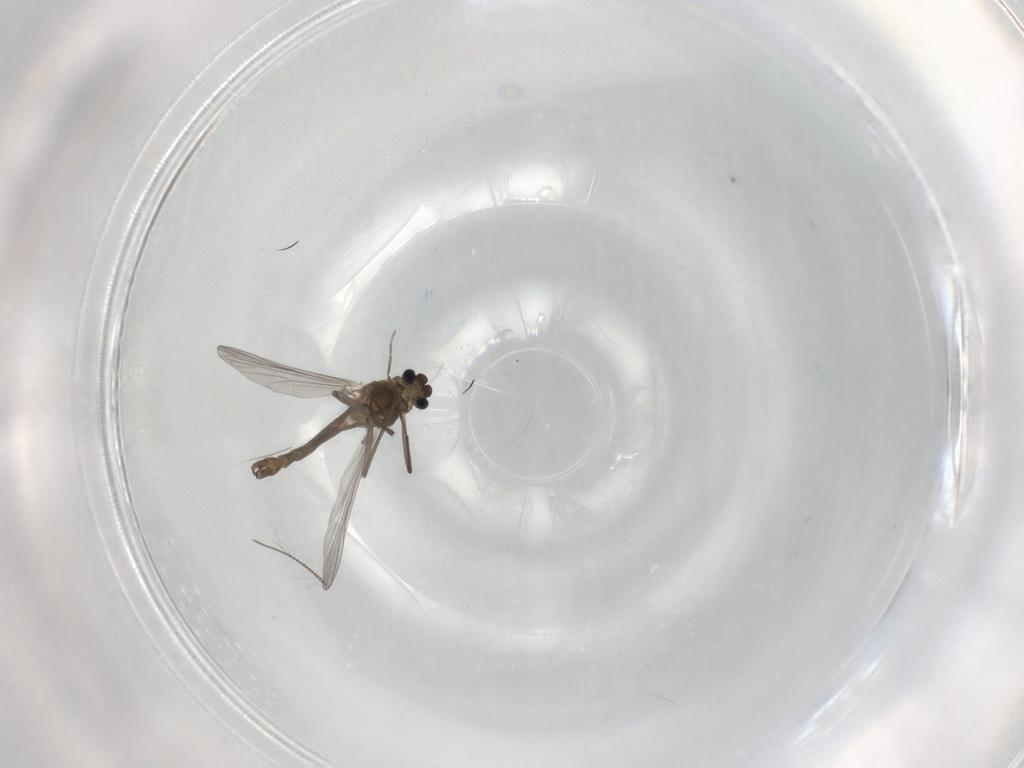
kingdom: Animalia
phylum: Arthropoda
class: Insecta
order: Diptera
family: Chironomidae
